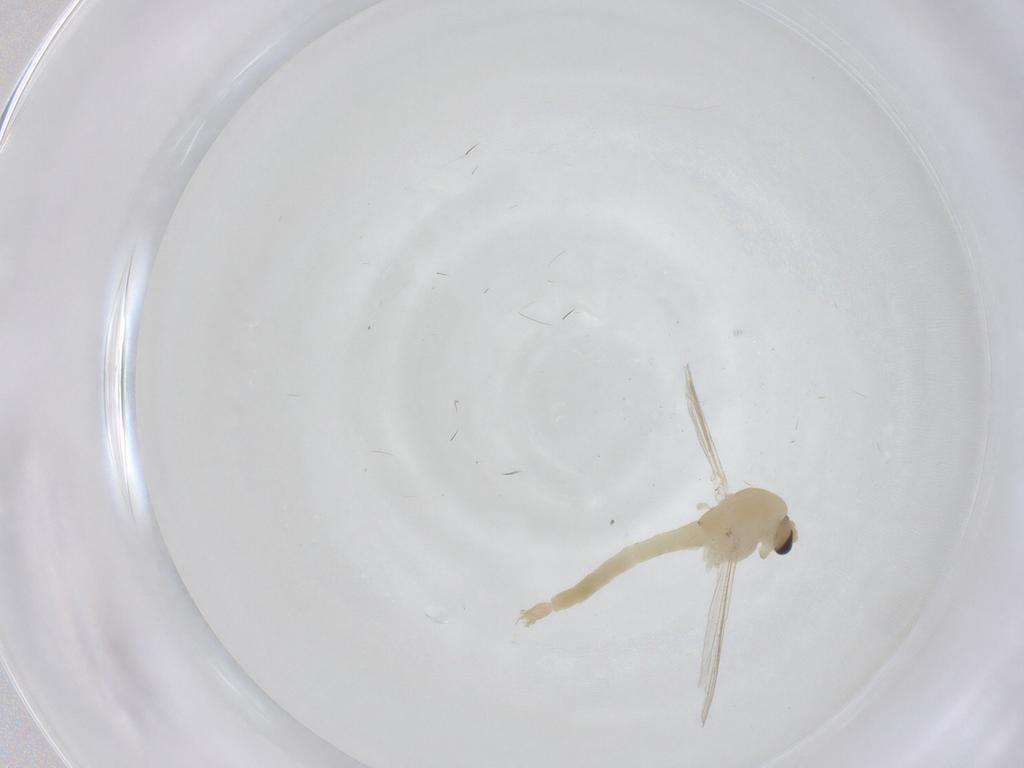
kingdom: Animalia
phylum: Arthropoda
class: Insecta
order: Diptera
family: Chironomidae
